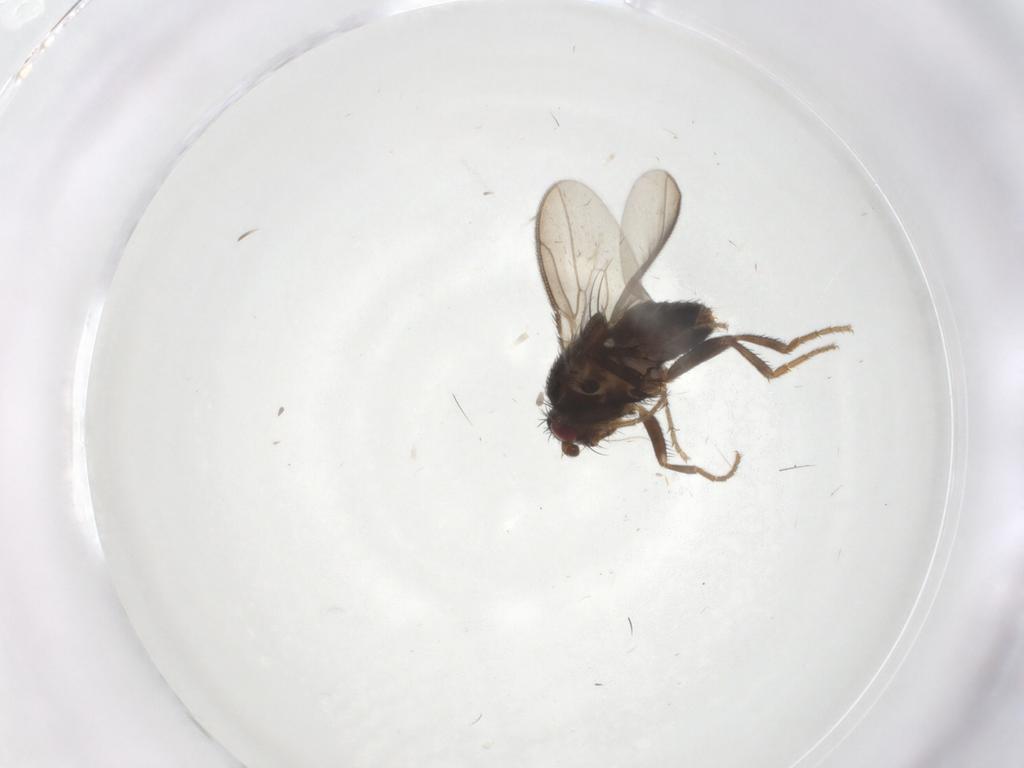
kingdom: Animalia
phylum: Arthropoda
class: Insecta
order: Diptera
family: Sphaeroceridae
